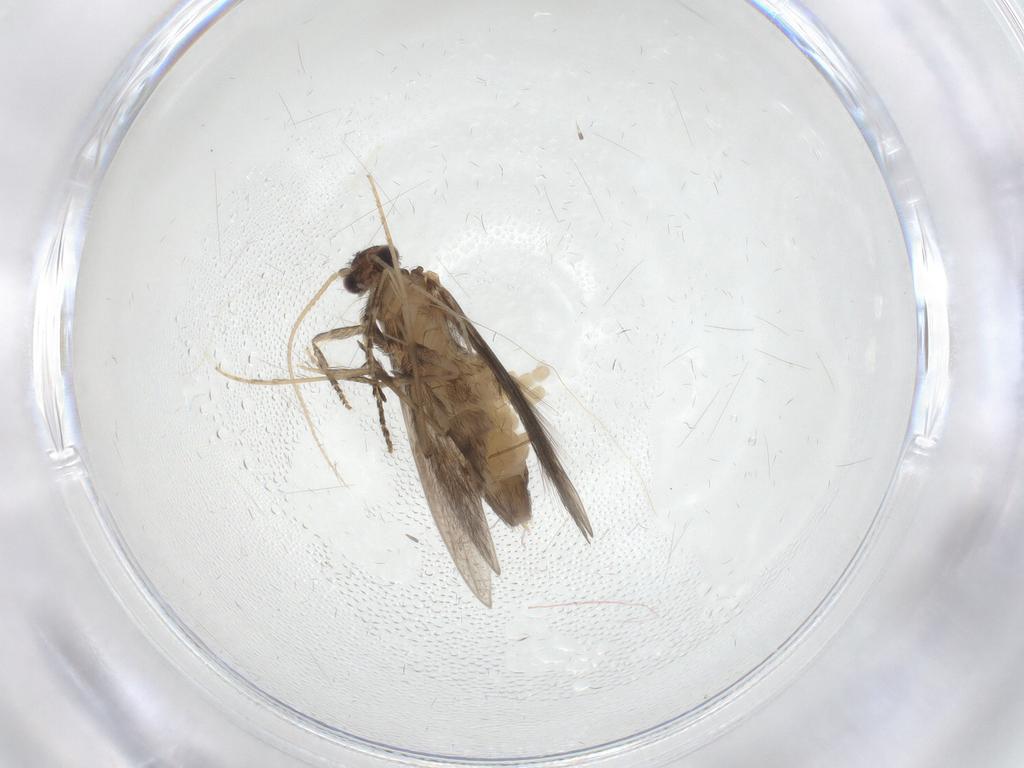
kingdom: Animalia
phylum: Arthropoda
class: Insecta
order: Trichoptera
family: Hydroptilidae
